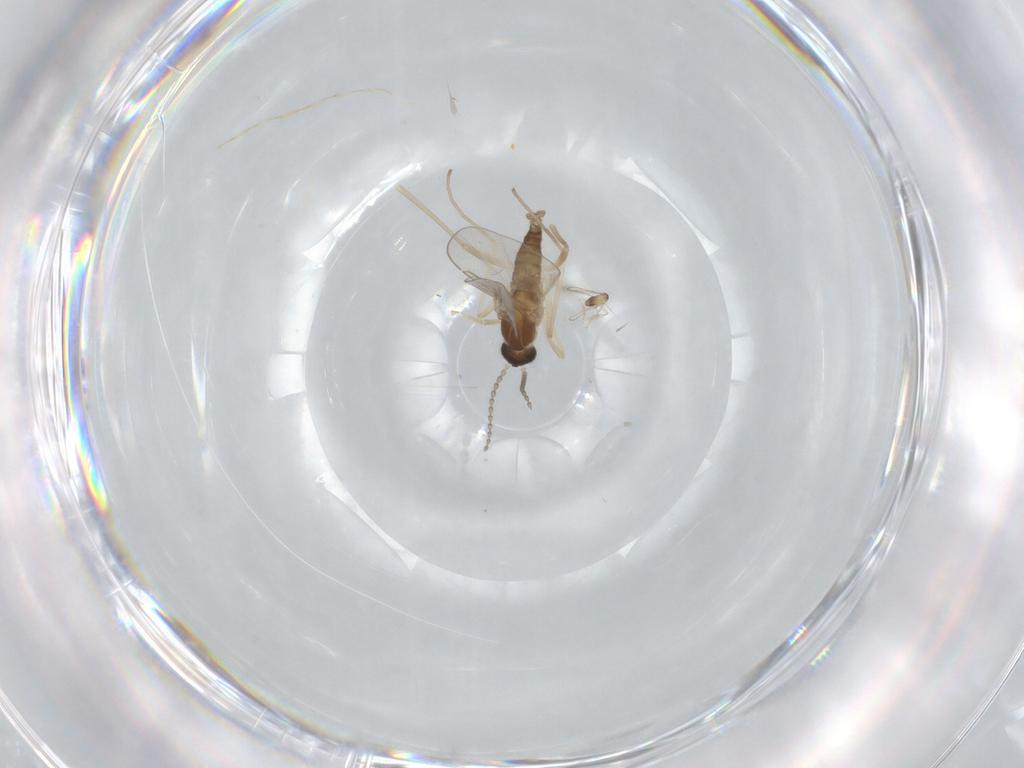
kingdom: Animalia
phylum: Arthropoda
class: Insecta
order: Diptera
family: Cecidomyiidae
